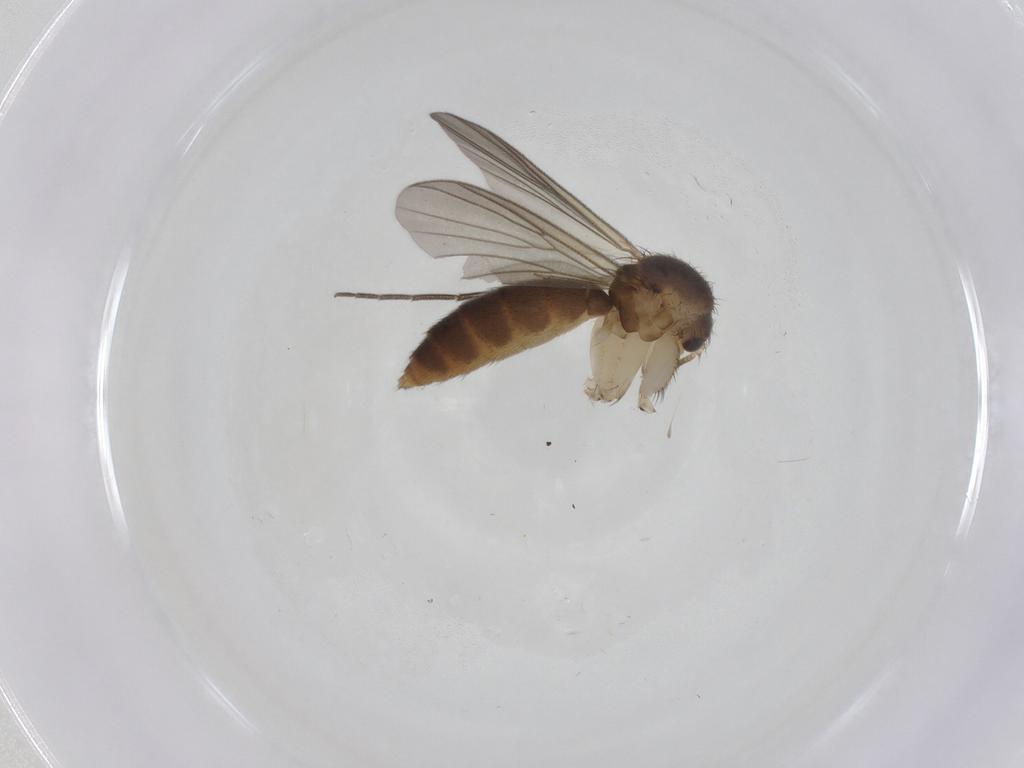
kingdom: Animalia
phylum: Arthropoda
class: Insecta
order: Diptera
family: Mycetophilidae
